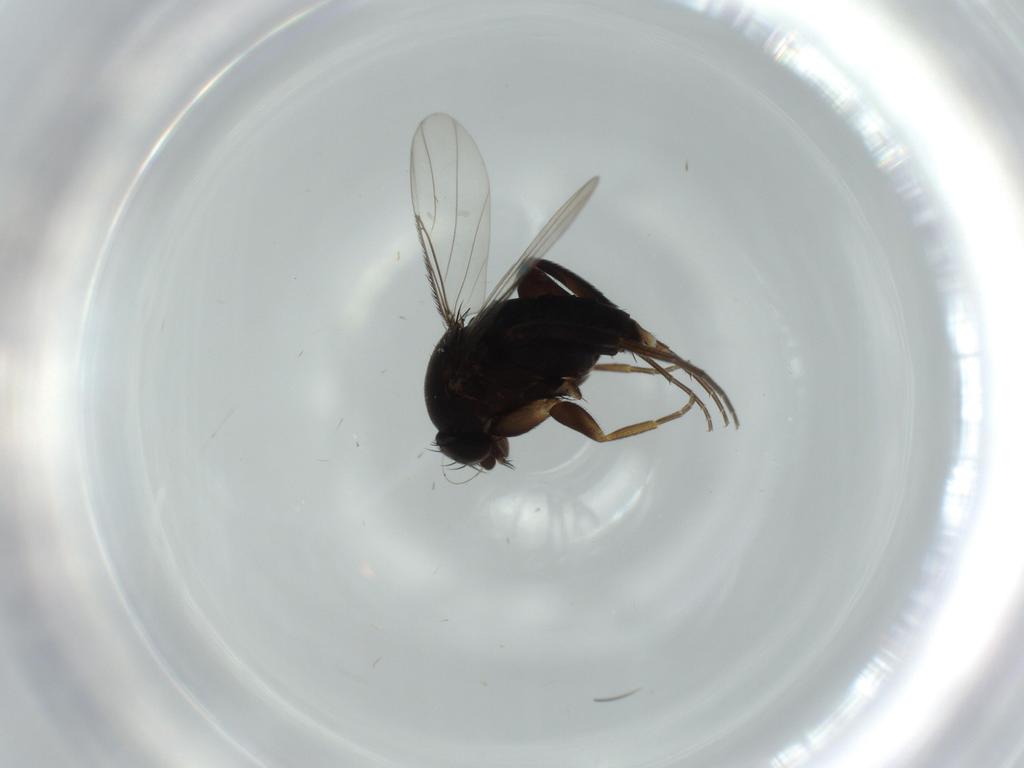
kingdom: Animalia
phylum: Arthropoda
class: Insecta
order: Diptera
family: Phoridae
